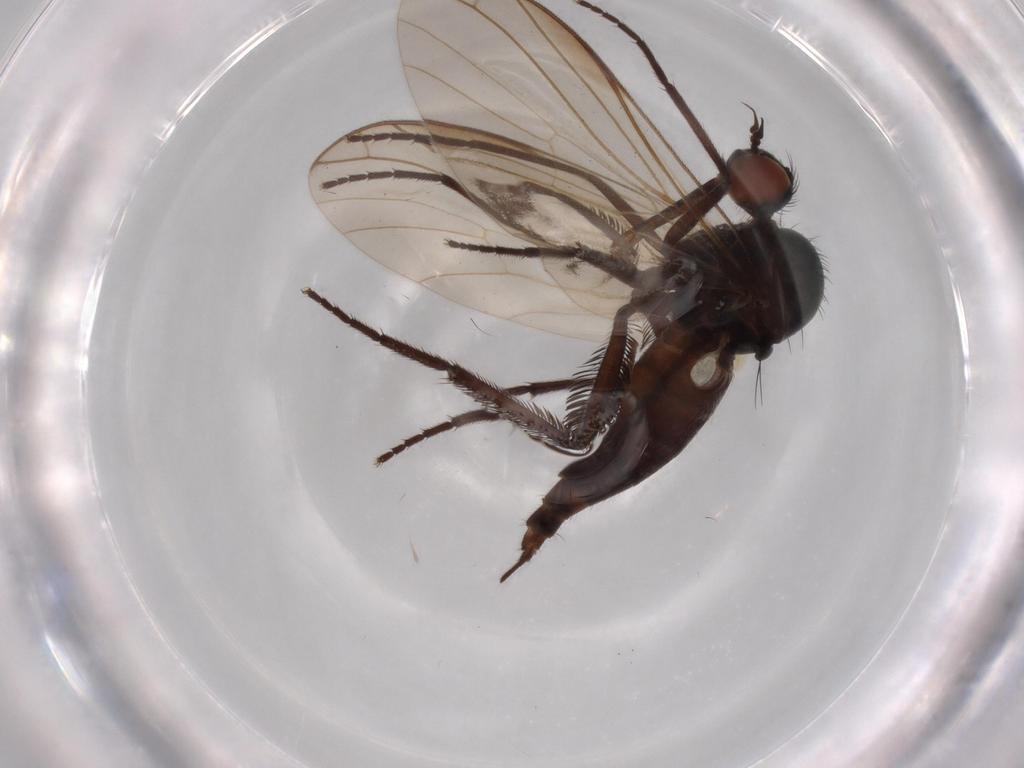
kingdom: Animalia
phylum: Arthropoda
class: Insecta
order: Diptera
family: Empididae
